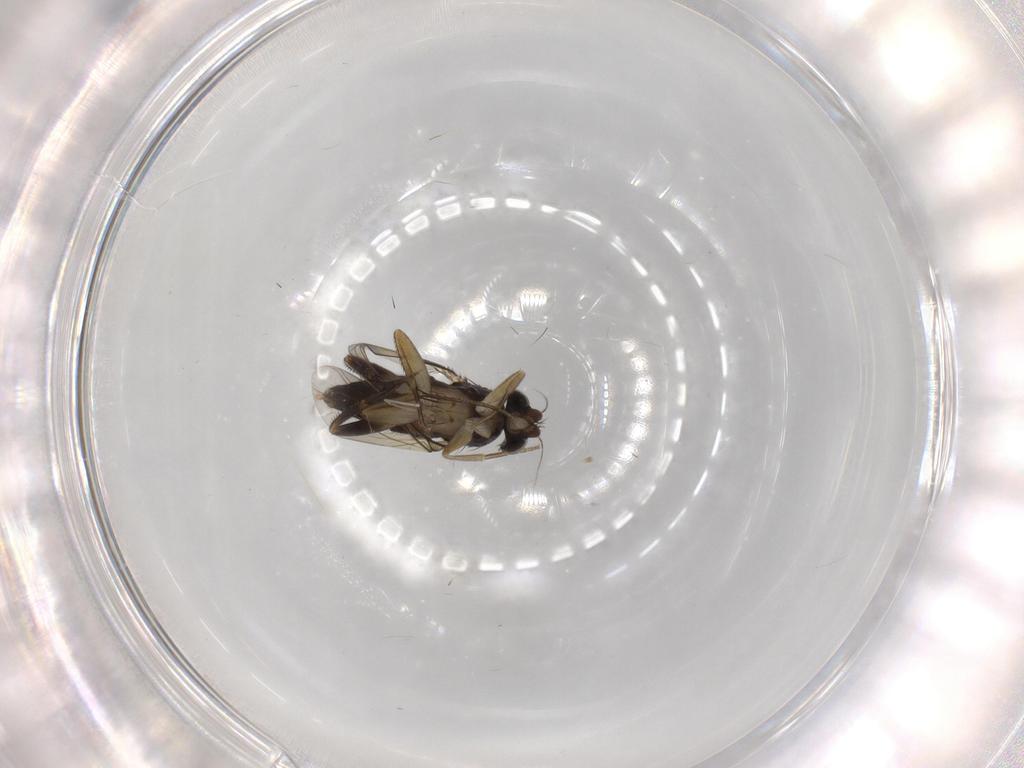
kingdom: Animalia
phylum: Arthropoda
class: Insecta
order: Diptera
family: Phoridae
